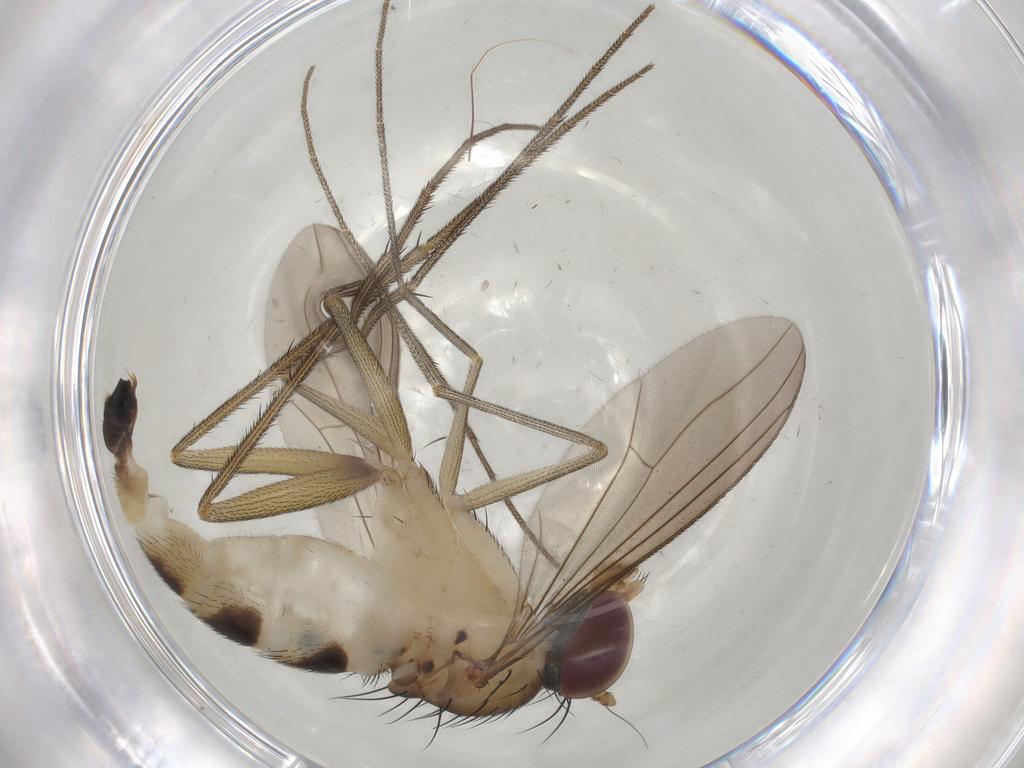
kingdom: Animalia
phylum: Arthropoda
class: Insecta
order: Diptera
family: Dolichopodidae
